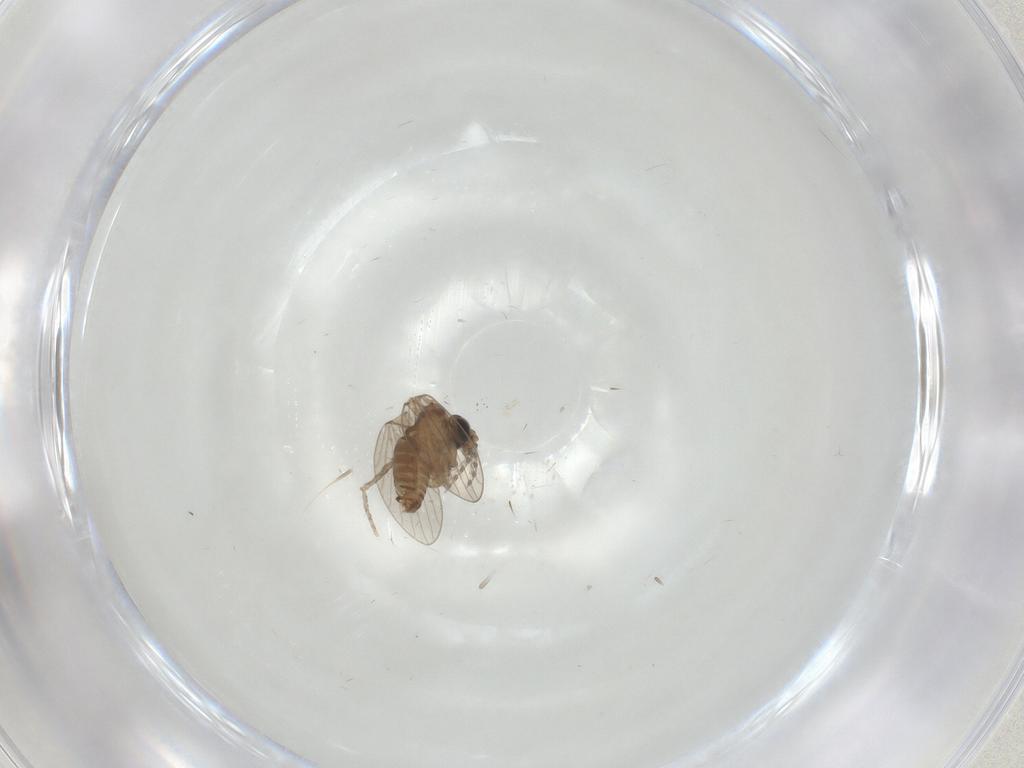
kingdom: Animalia
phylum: Arthropoda
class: Insecta
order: Diptera
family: Psychodidae
